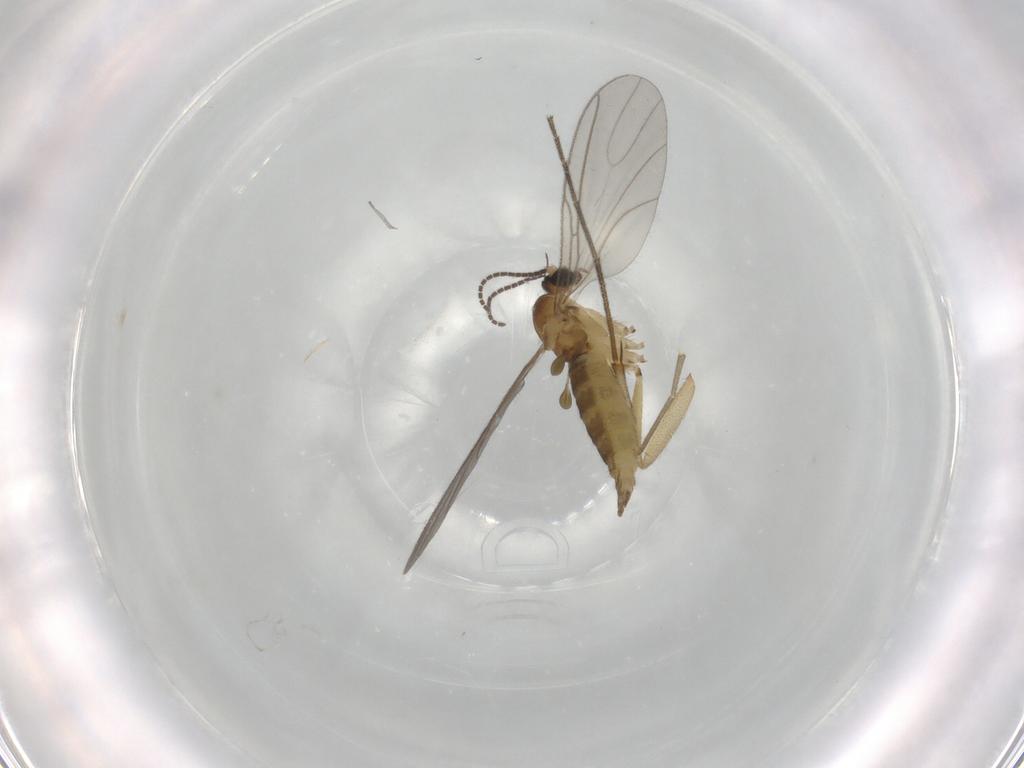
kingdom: Animalia
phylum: Arthropoda
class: Insecta
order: Diptera
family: Sciaridae
